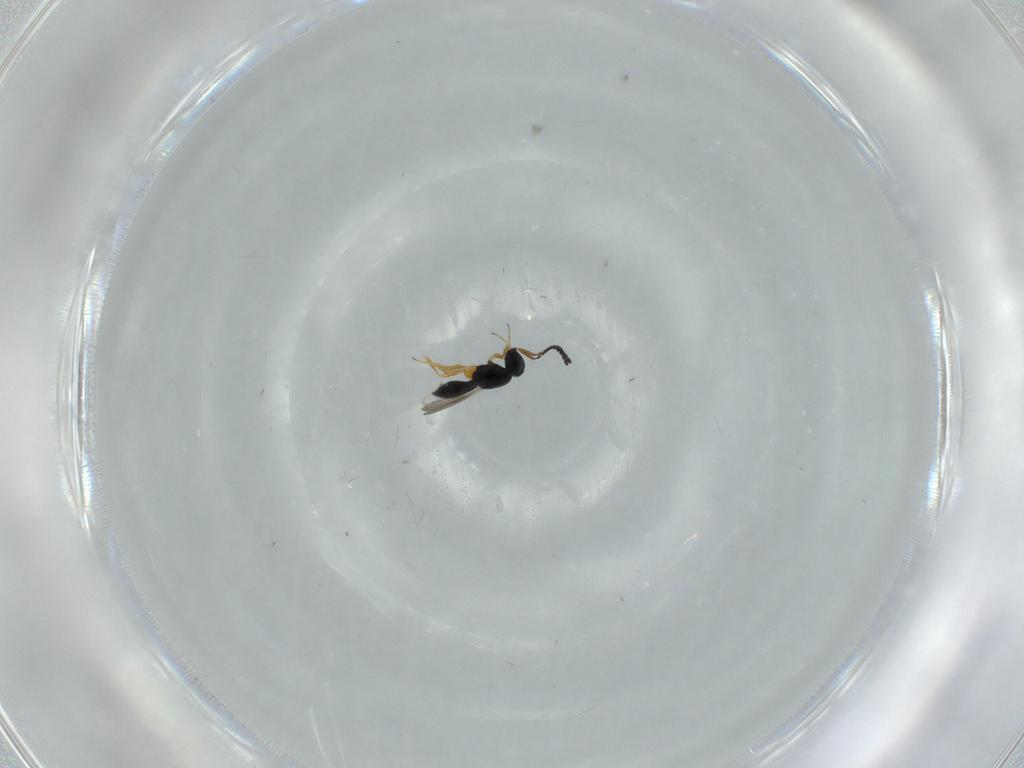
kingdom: Animalia
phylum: Arthropoda
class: Insecta
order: Hymenoptera
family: Scelionidae
